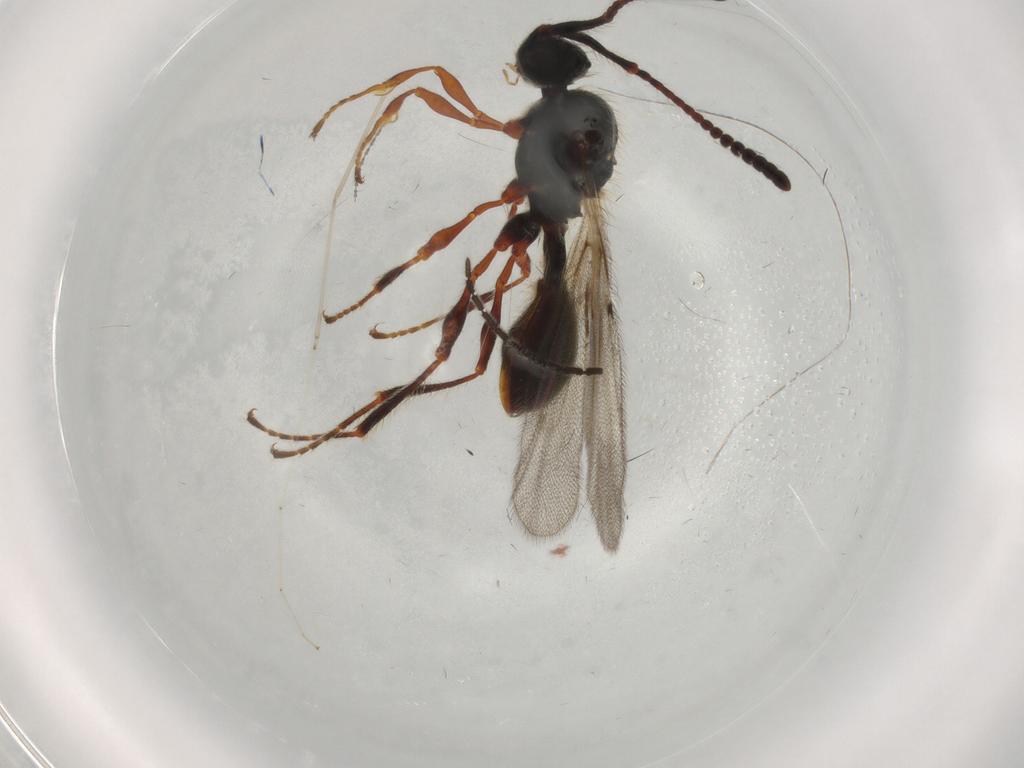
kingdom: Animalia
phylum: Arthropoda
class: Insecta
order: Hymenoptera
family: Diapriidae
